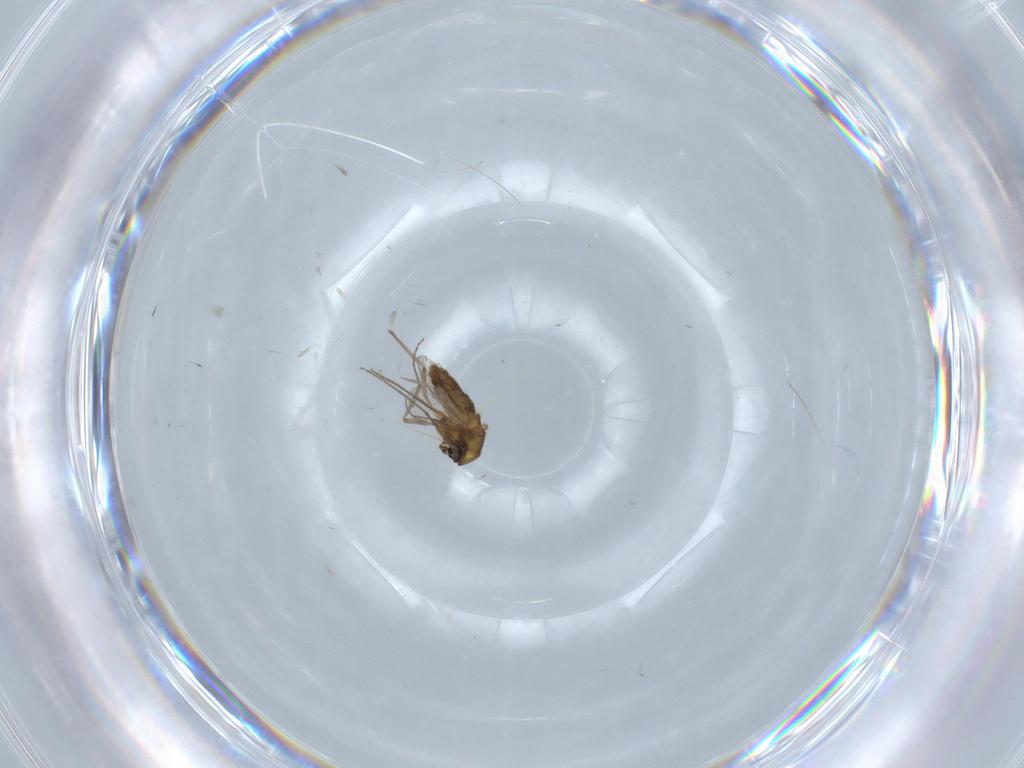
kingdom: Animalia
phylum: Arthropoda
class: Insecta
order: Diptera
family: Chironomidae
